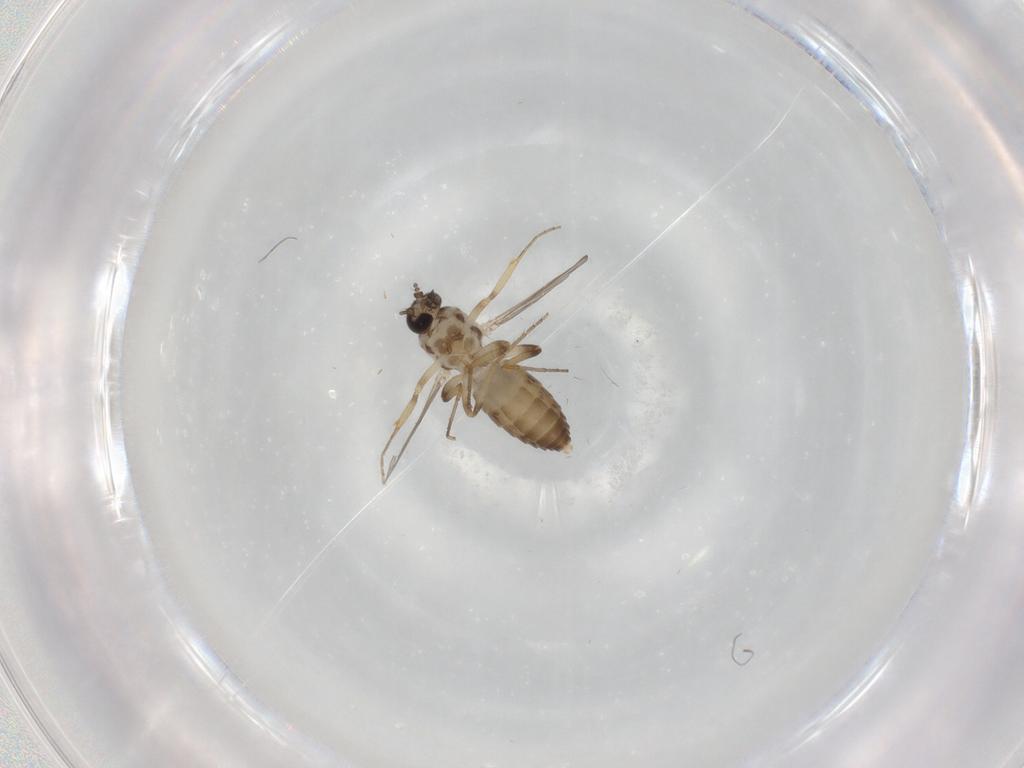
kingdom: Animalia
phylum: Arthropoda
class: Insecta
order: Diptera
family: Ceratopogonidae
